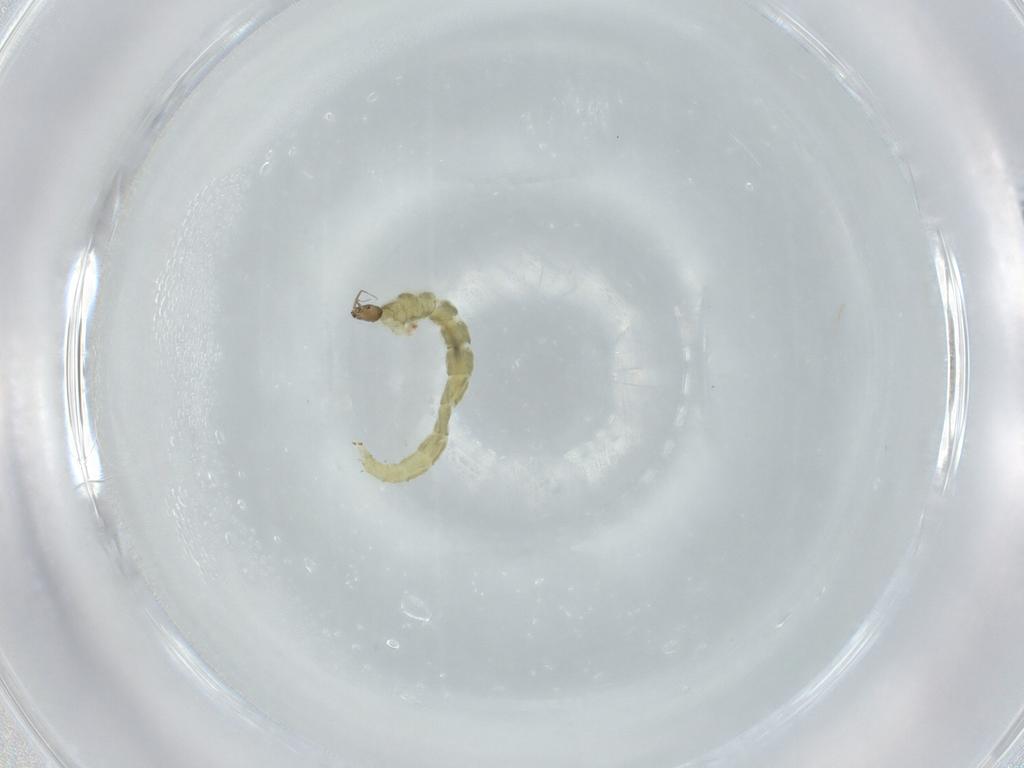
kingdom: Animalia
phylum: Arthropoda
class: Insecta
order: Diptera
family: Chironomidae
